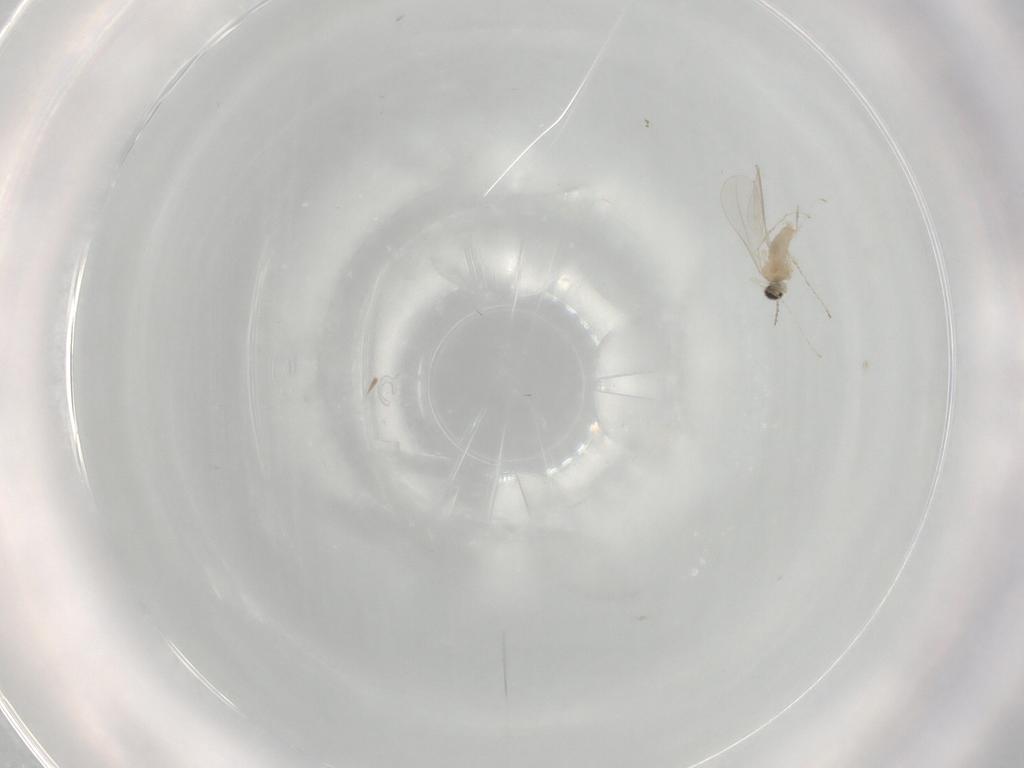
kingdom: Animalia
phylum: Arthropoda
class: Insecta
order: Diptera
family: Cecidomyiidae
